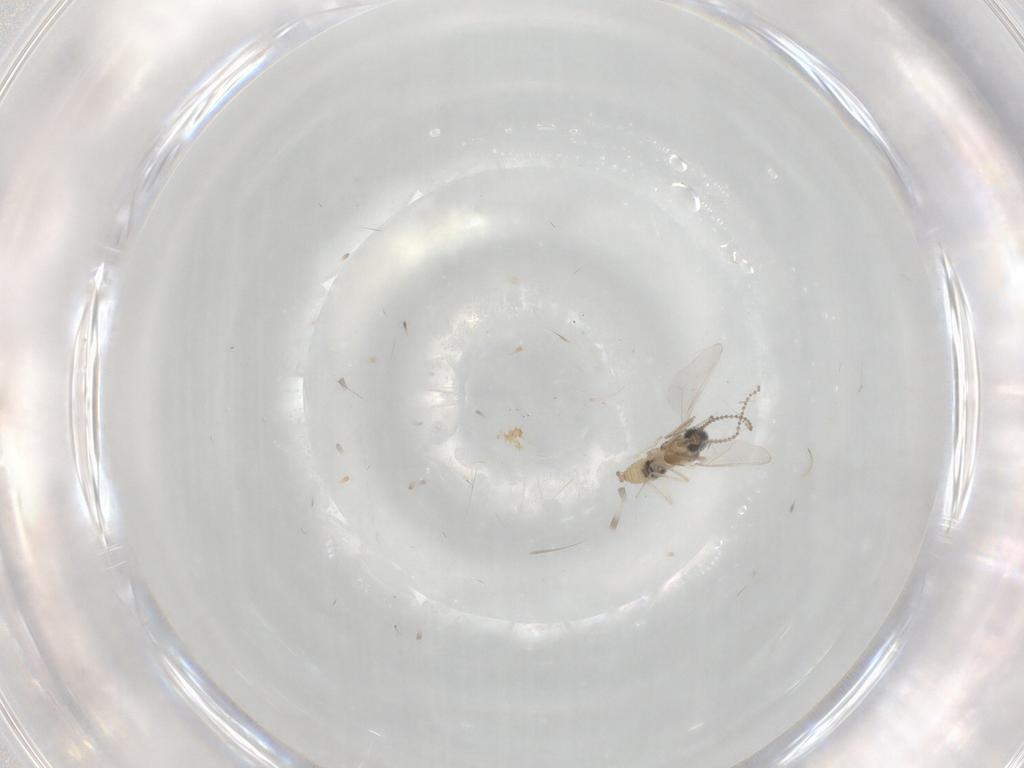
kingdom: Animalia
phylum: Arthropoda
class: Insecta
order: Diptera
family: Cecidomyiidae
